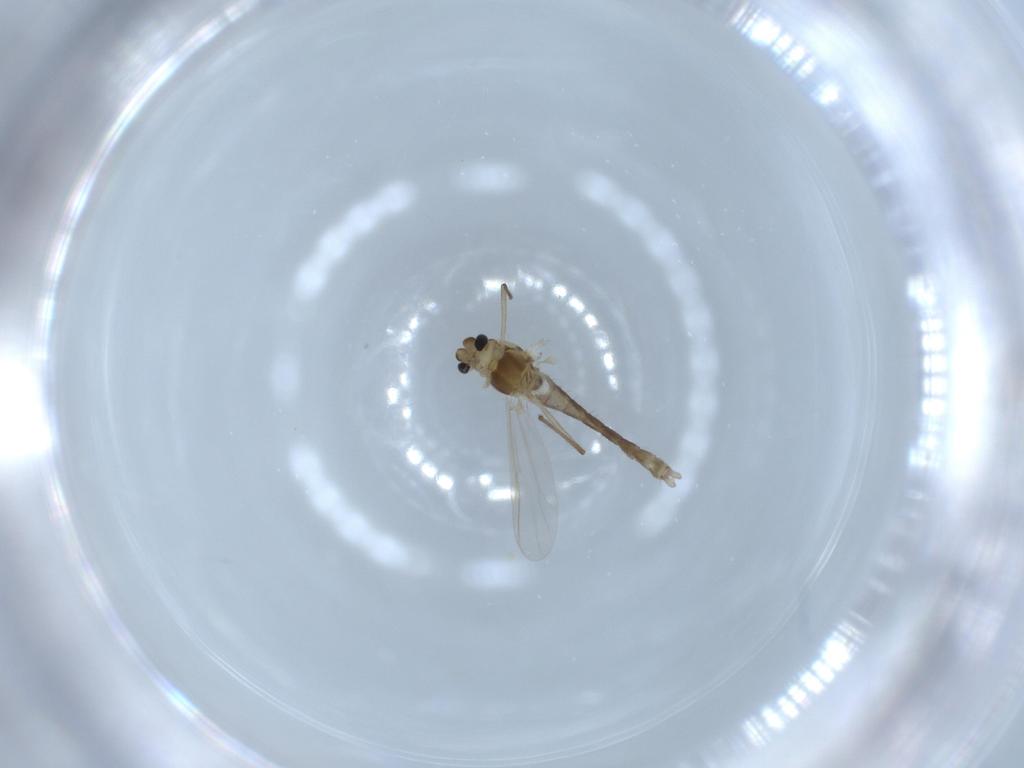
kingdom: Animalia
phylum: Arthropoda
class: Insecta
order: Diptera
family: Chironomidae
